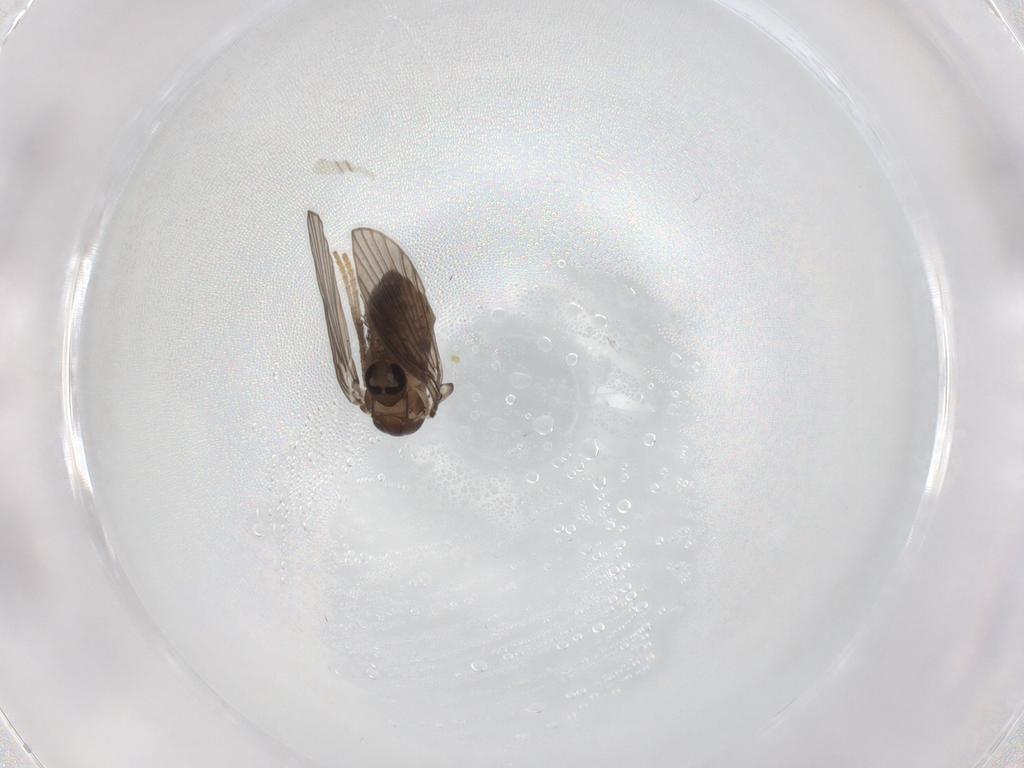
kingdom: Animalia
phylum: Arthropoda
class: Insecta
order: Diptera
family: Psychodidae
